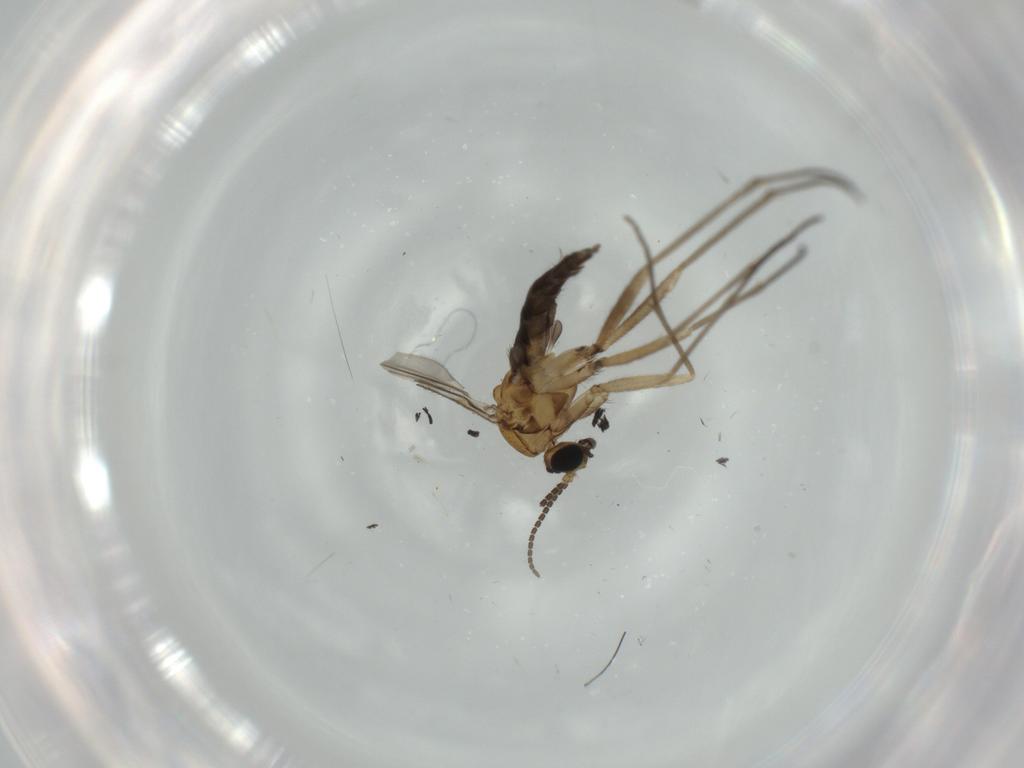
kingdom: Animalia
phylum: Arthropoda
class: Insecta
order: Diptera
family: Sciaridae
